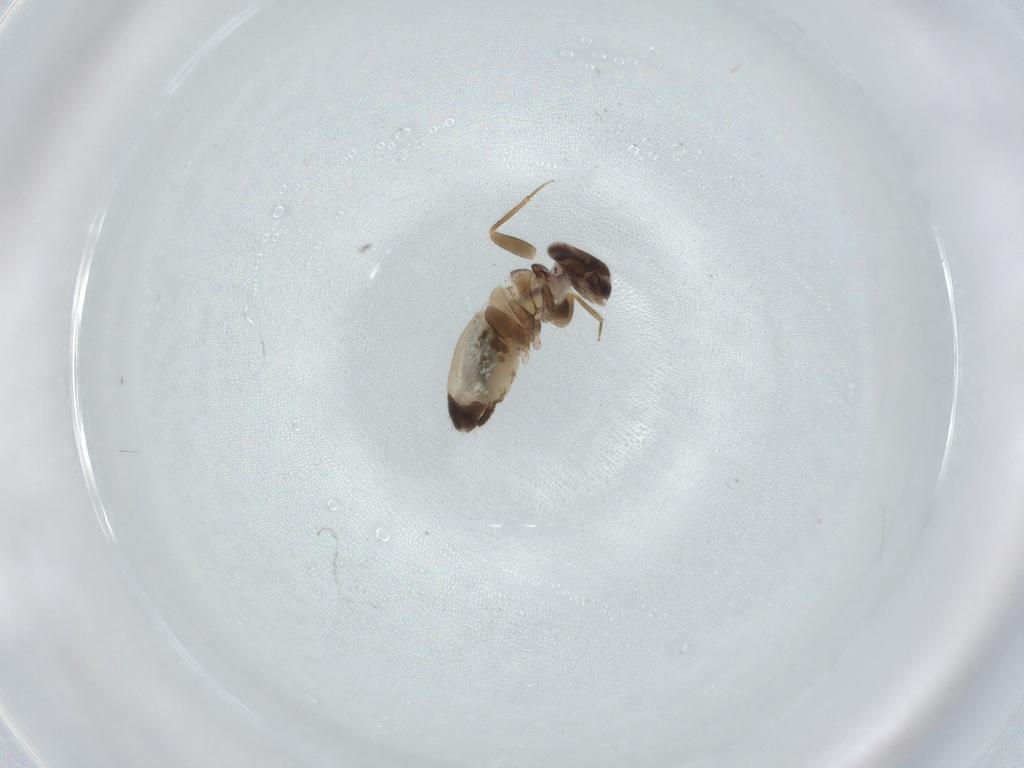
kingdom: Animalia
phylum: Arthropoda
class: Insecta
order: Psocodea
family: Lepidopsocidae
